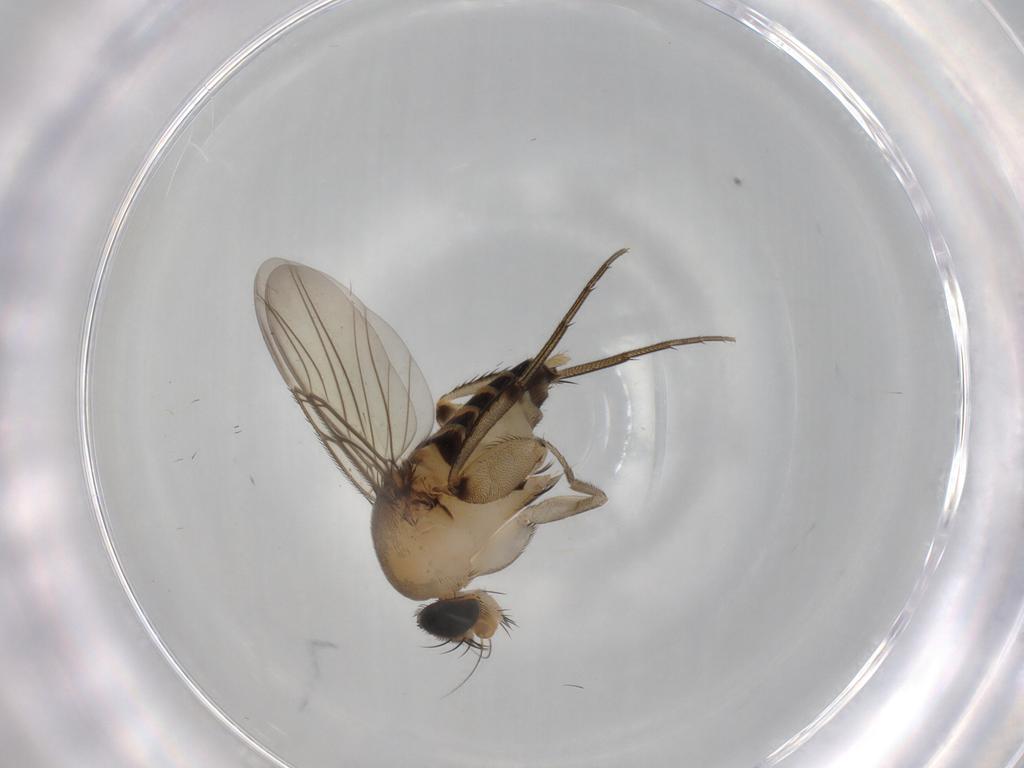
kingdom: Animalia
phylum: Arthropoda
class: Insecta
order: Diptera
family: Phoridae
